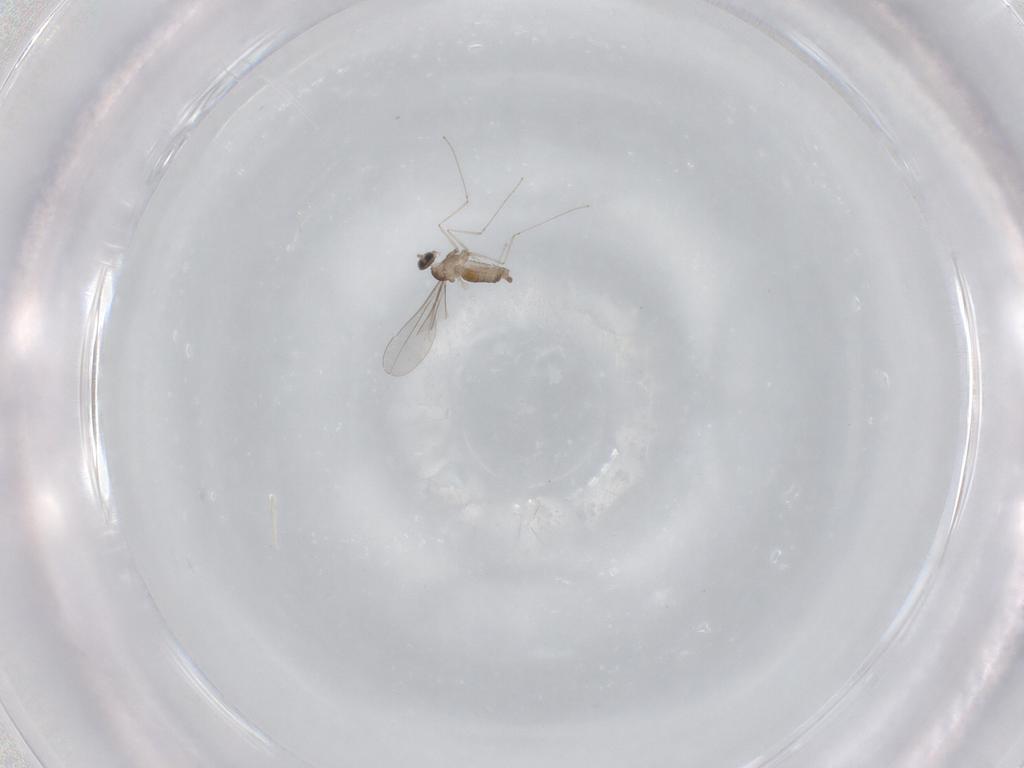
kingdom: Animalia
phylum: Arthropoda
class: Insecta
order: Diptera
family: Cecidomyiidae
